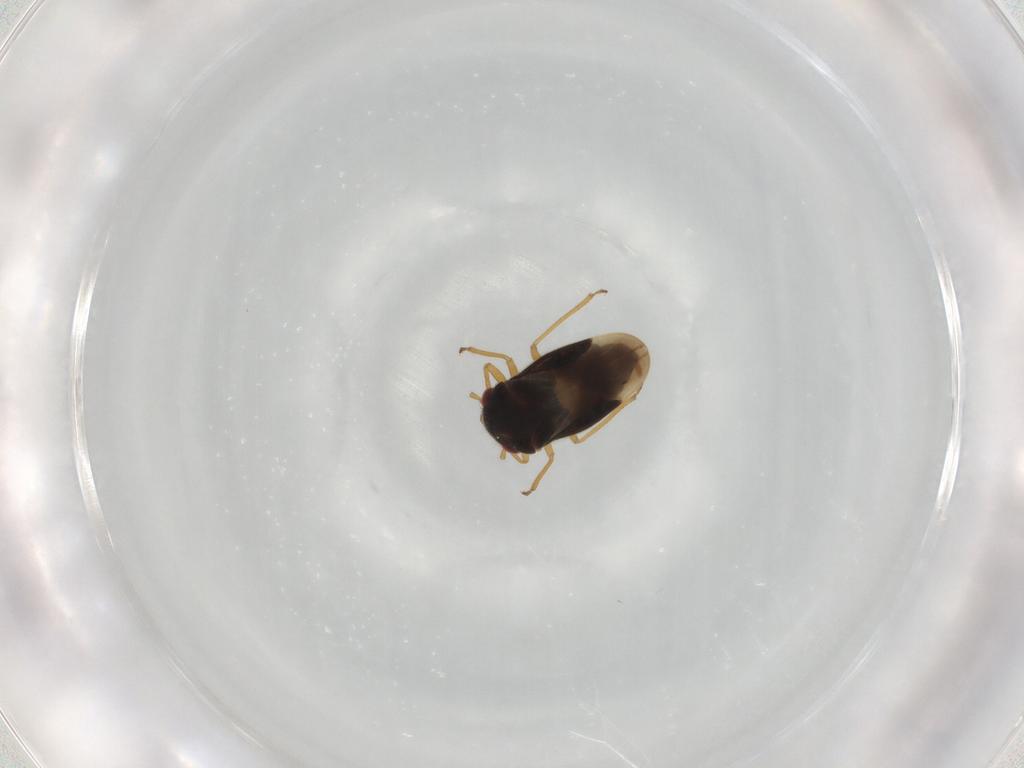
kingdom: Animalia
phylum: Arthropoda
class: Insecta
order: Hemiptera
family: Schizopteridae
